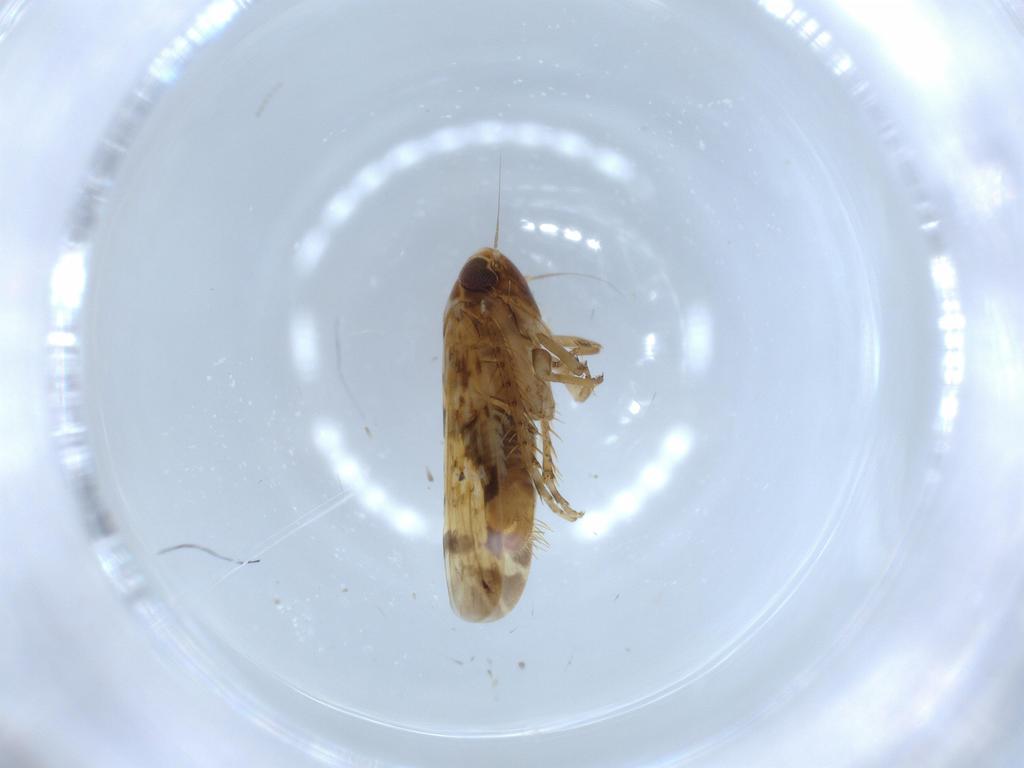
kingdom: Animalia
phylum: Arthropoda
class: Insecta
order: Hemiptera
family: Cicadellidae
